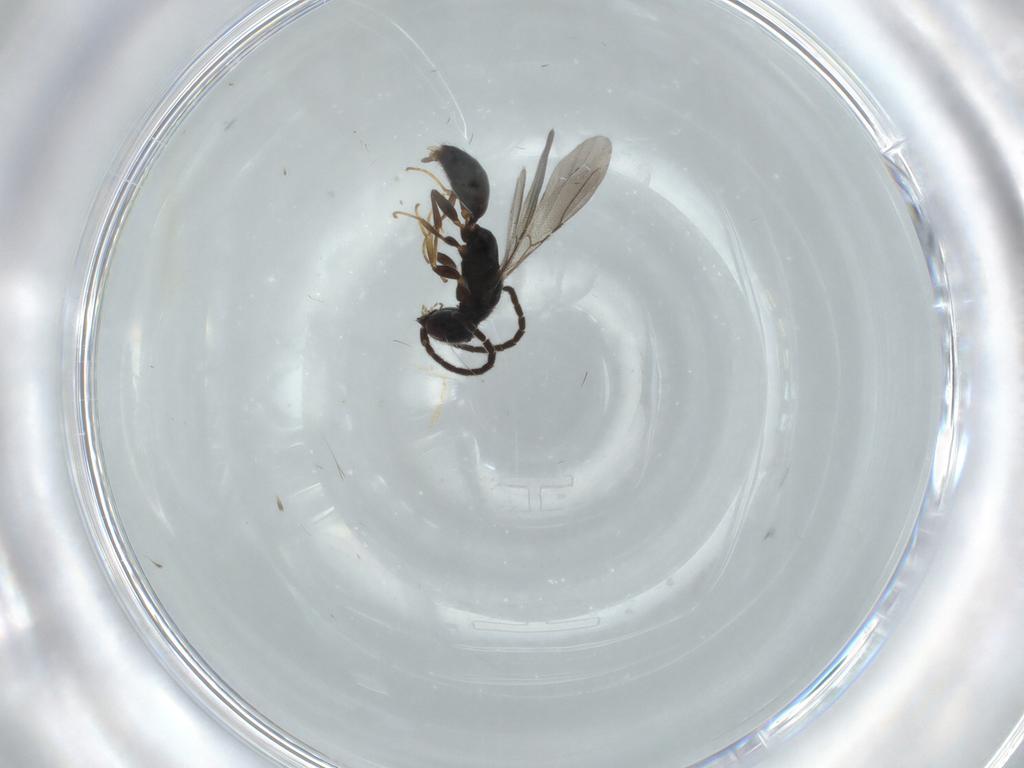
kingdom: Animalia
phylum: Arthropoda
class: Insecta
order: Hymenoptera
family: Bethylidae
